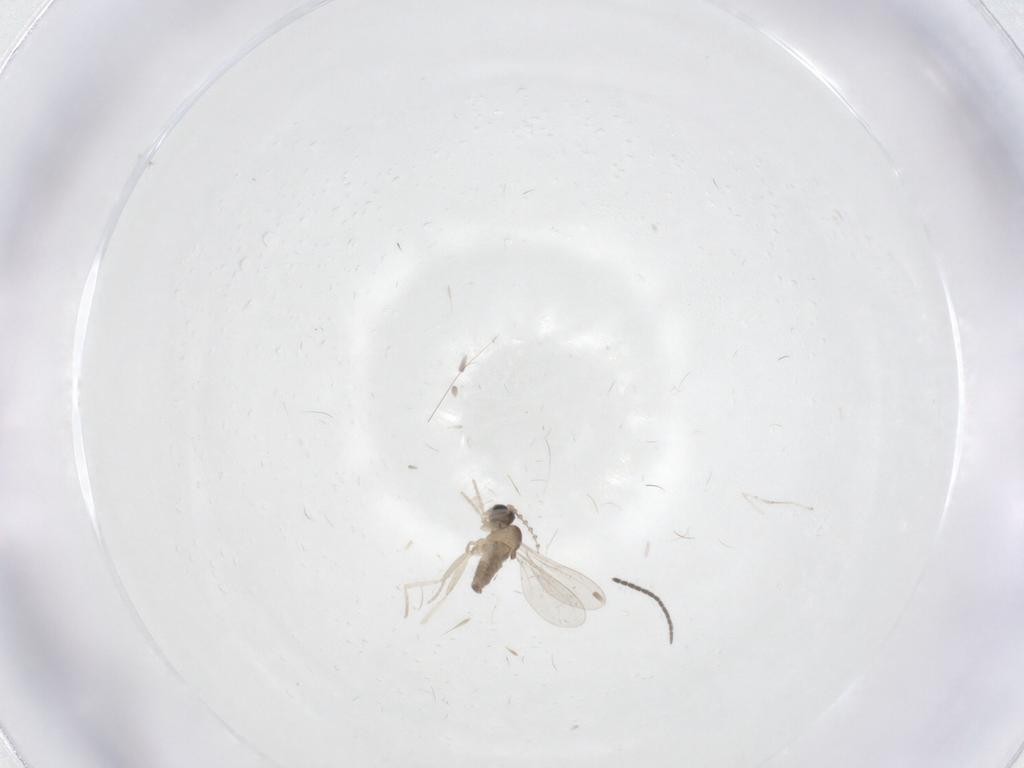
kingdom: Animalia
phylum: Arthropoda
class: Insecta
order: Diptera
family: Cecidomyiidae
